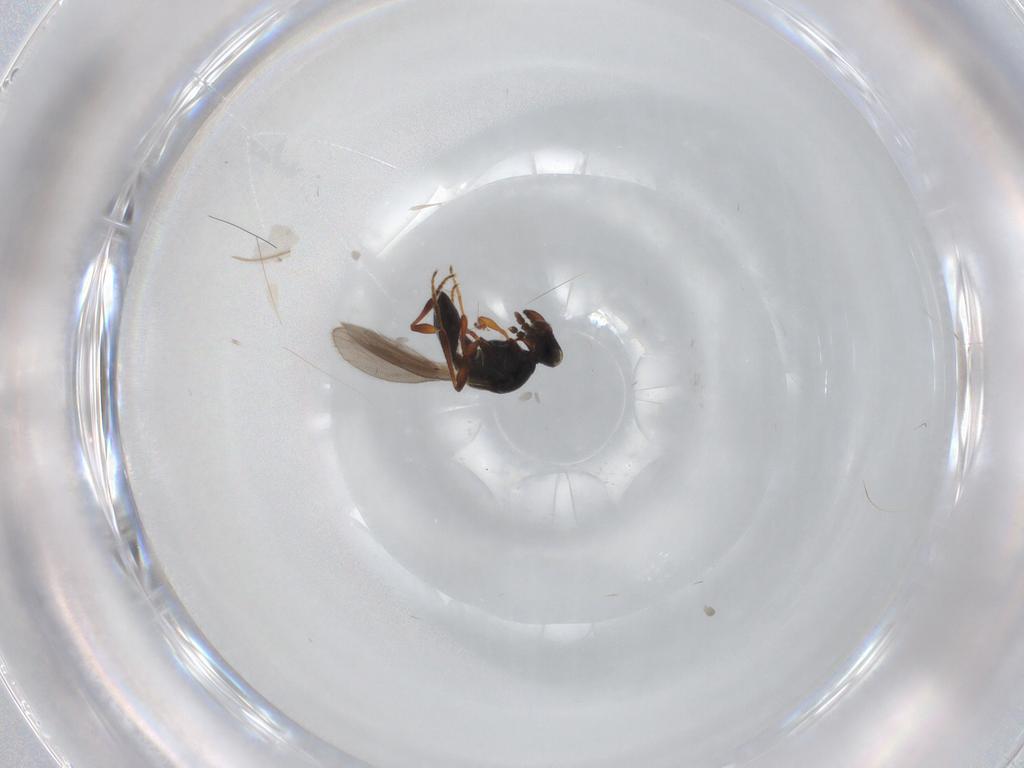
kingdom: Animalia
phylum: Arthropoda
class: Insecta
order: Hymenoptera
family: Platygastridae
